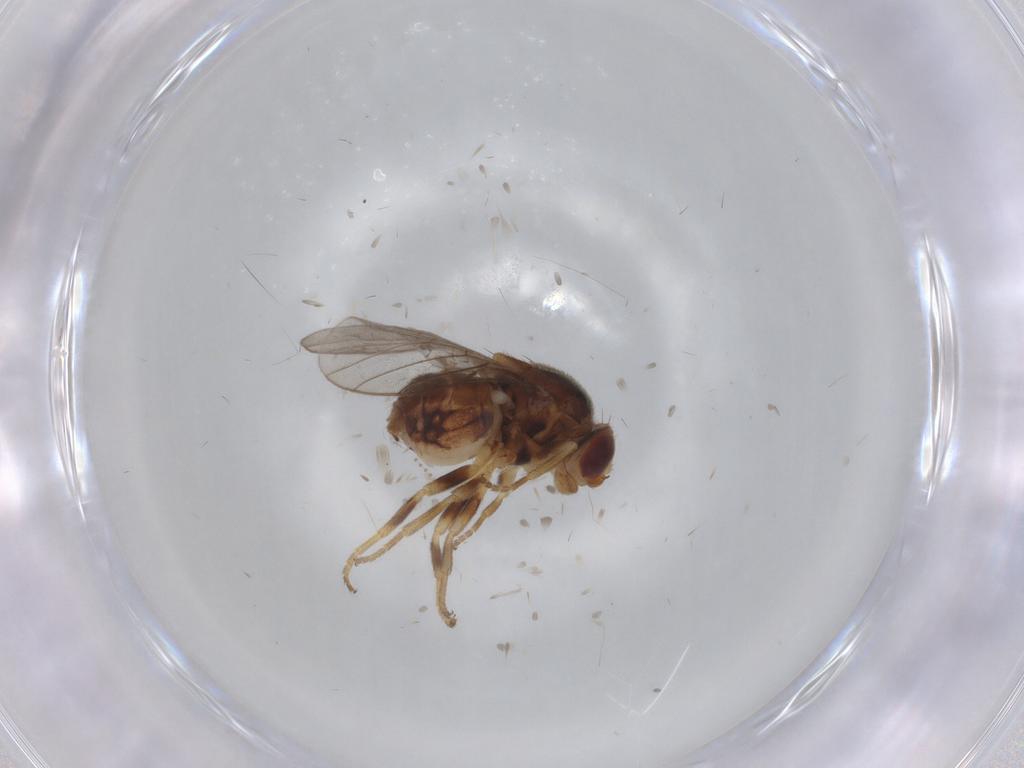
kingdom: Animalia
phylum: Arthropoda
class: Insecta
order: Diptera
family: Chloropidae
